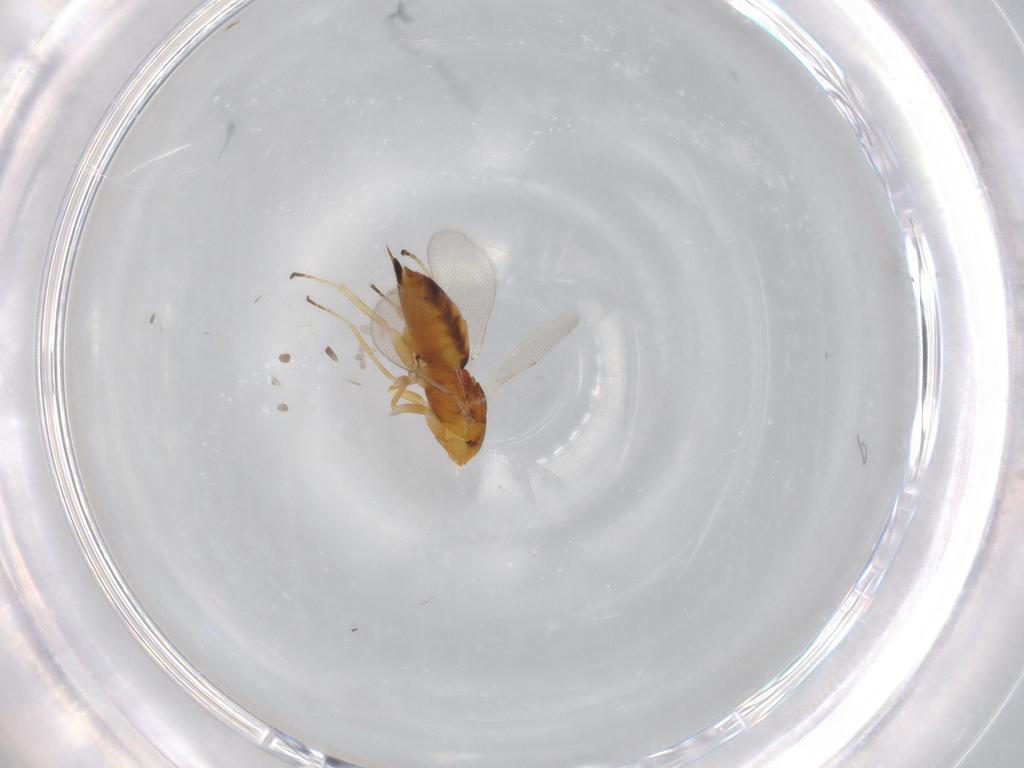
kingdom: Animalia
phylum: Arthropoda
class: Insecta
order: Hymenoptera
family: Eulophidae
